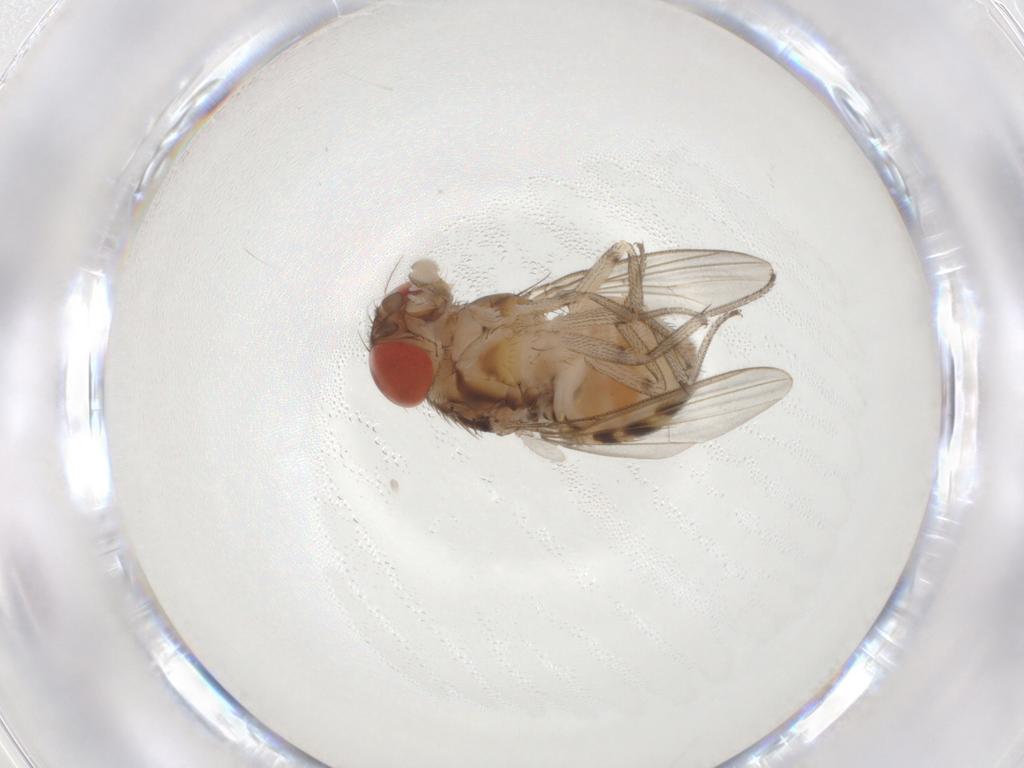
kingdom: Animalia
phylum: Arthropoda
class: Insecta
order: Diptera
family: Drosophilidae
